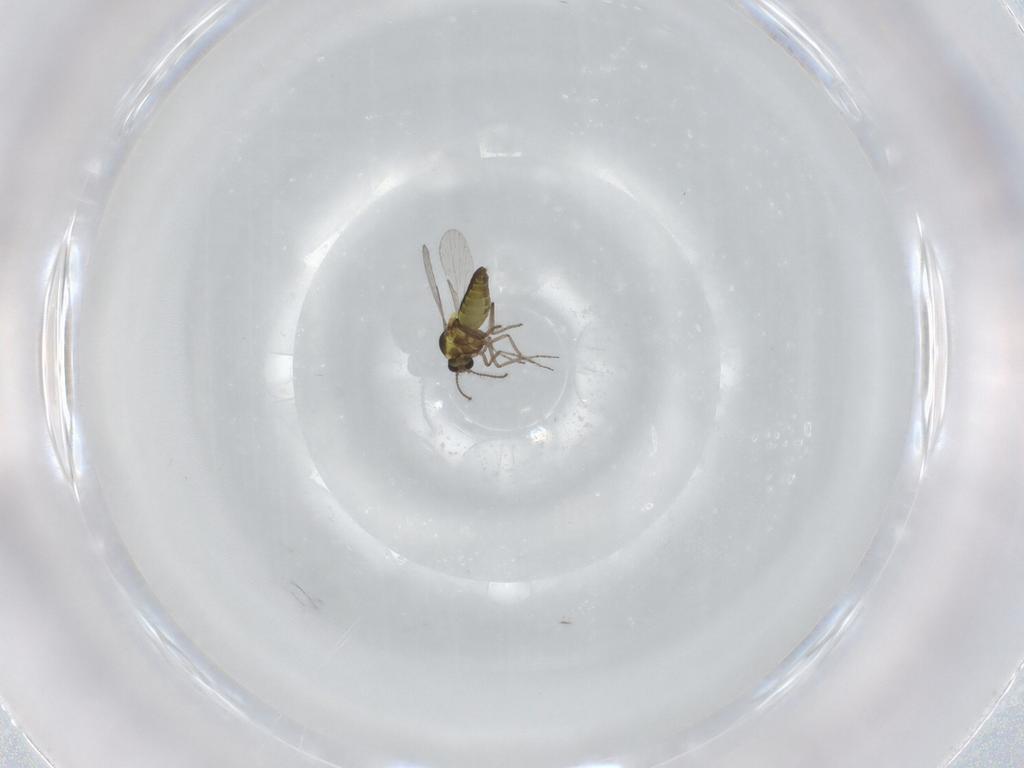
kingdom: Animalia
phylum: Arthropoda
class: Insecta
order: Diptera
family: Ceratopogonidae
